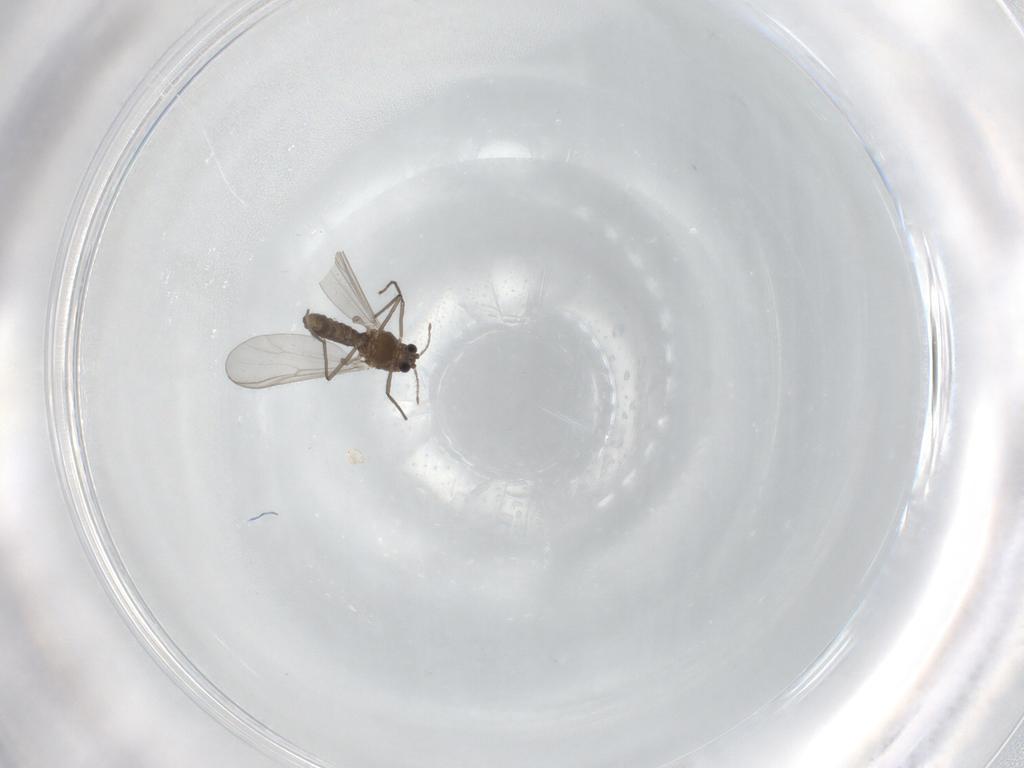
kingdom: Animalia
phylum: Arthropoda
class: Insecta
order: Diptera
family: Chironomidae
